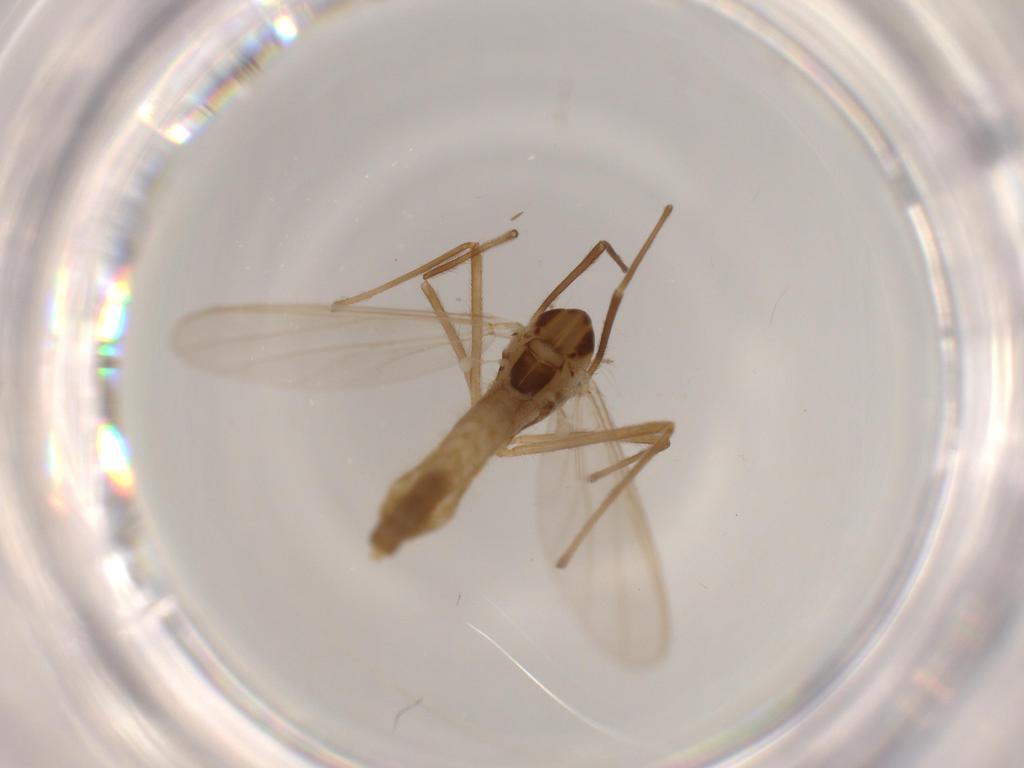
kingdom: Animalia
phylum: Arthropoda
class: Insecta
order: Diptera
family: Chironomidae
